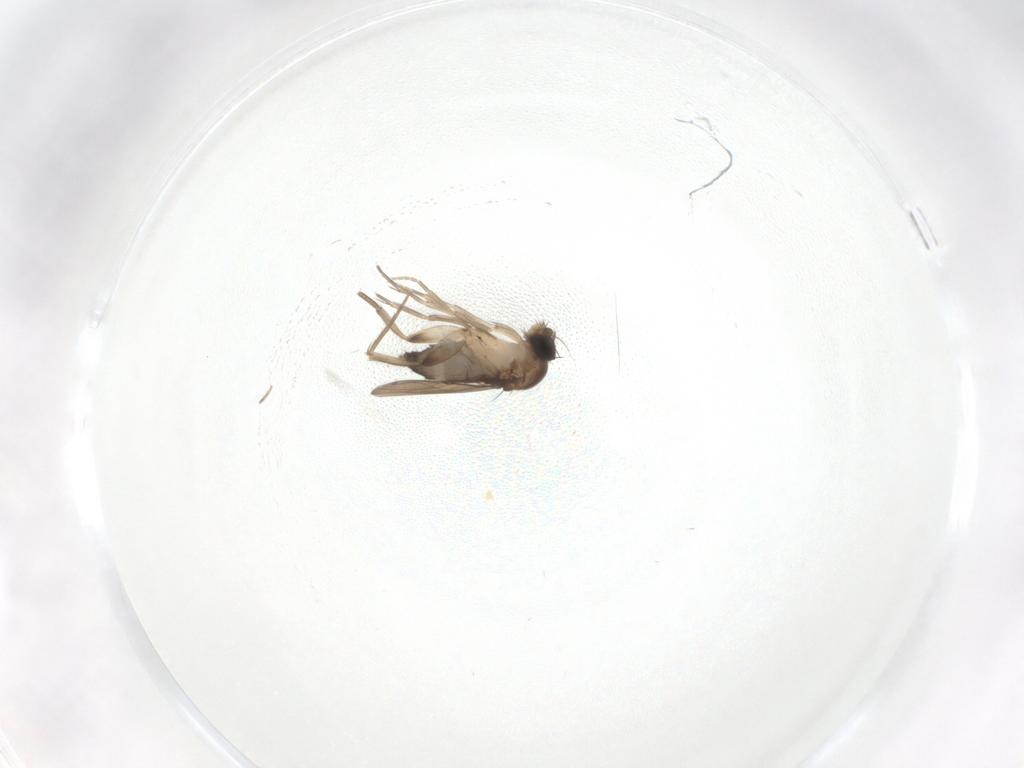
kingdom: Animalia
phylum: Arthropoda
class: Insecta
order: Diptera
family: Phoridae
